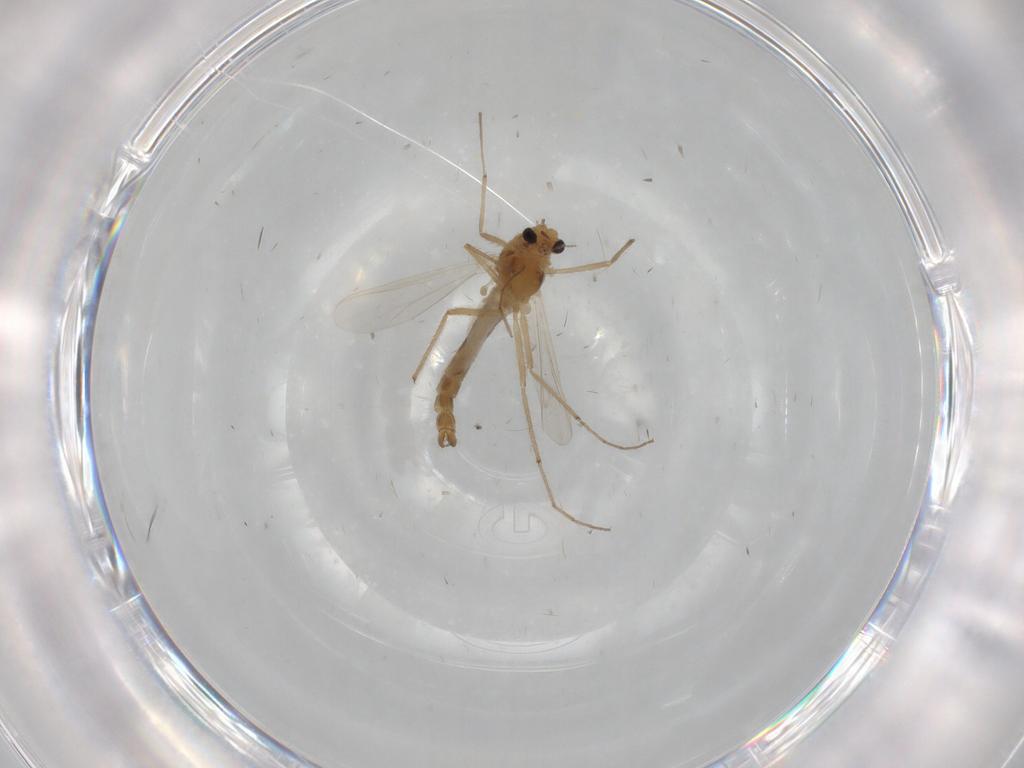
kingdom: Animalia
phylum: Arthropoda
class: Insecta
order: Diptera
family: Chironomidae
